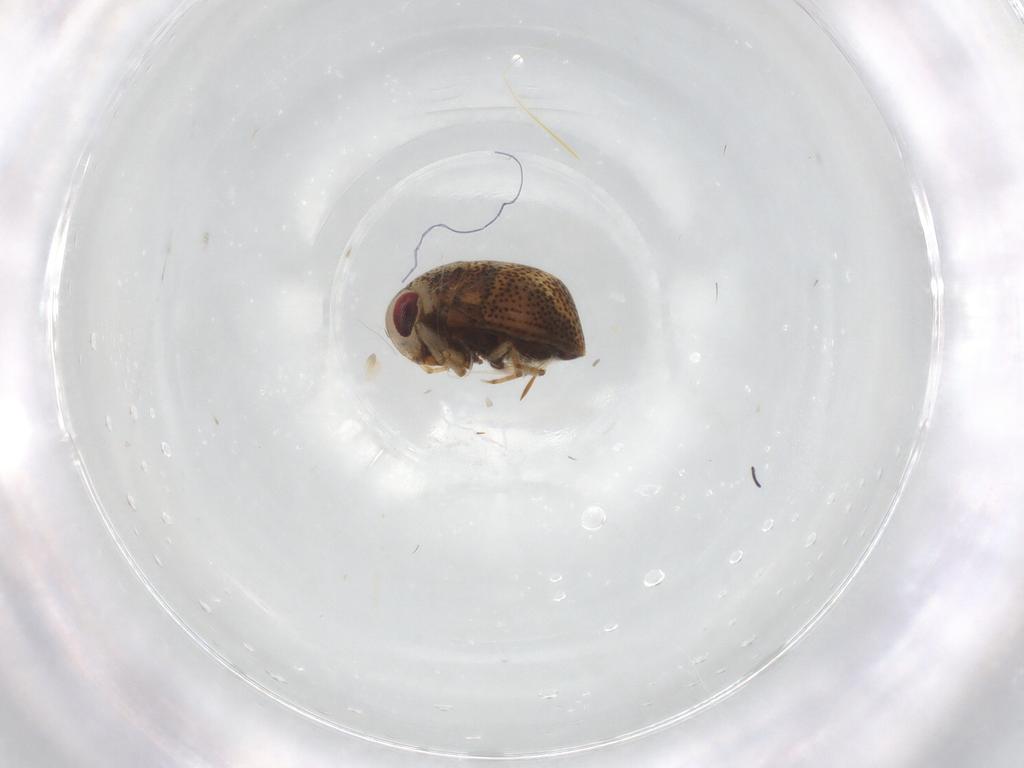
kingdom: Animalia
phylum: Arthropoda
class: Insecta
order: Hemiptera
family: Pleidae
